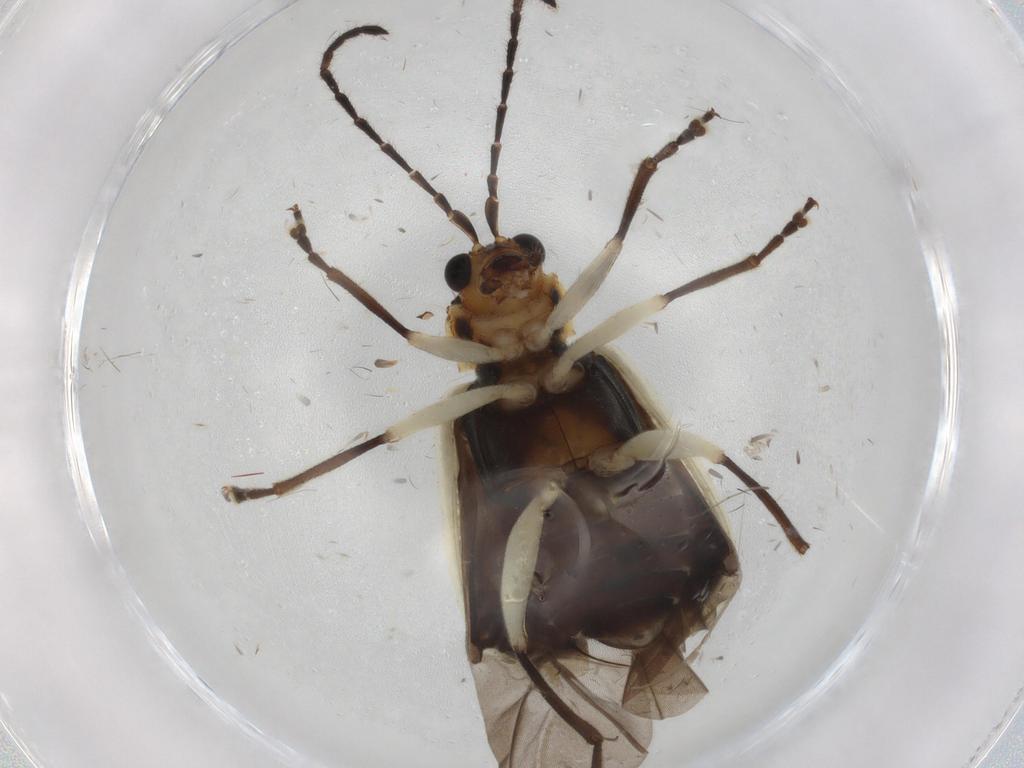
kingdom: Animalia
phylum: Arthropoda
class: Insecta
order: Coleoptera
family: Chrysomelidae
